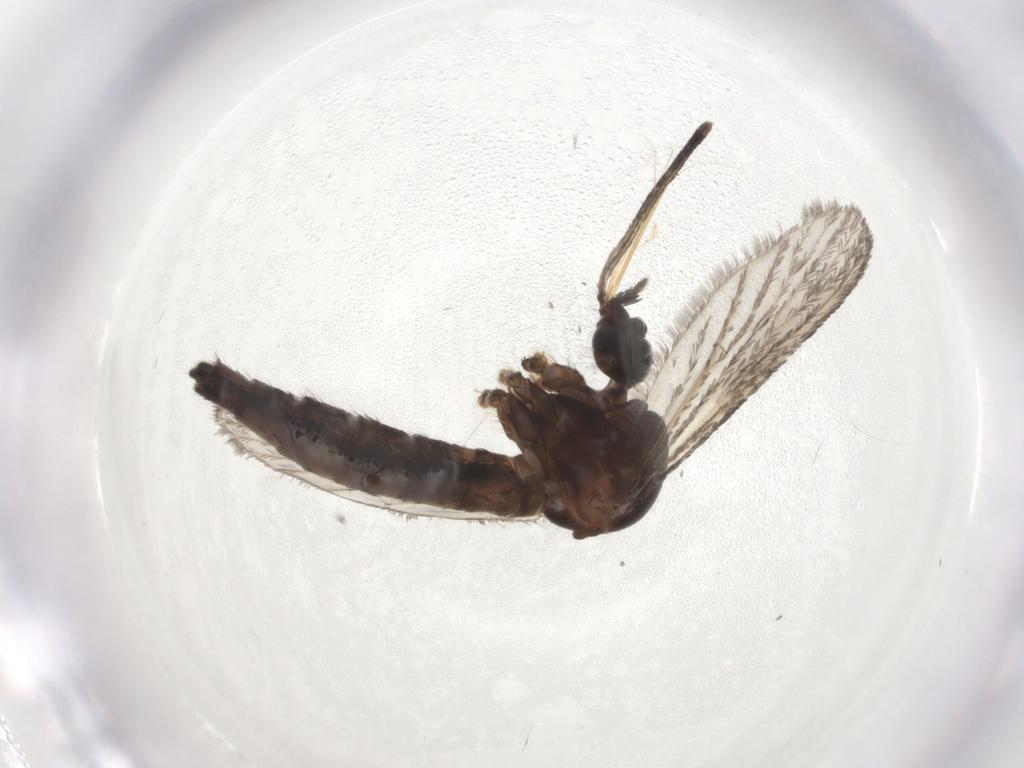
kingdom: Animalia
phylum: Arthropoda
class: Insecta
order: Diptera
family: Culicidae
